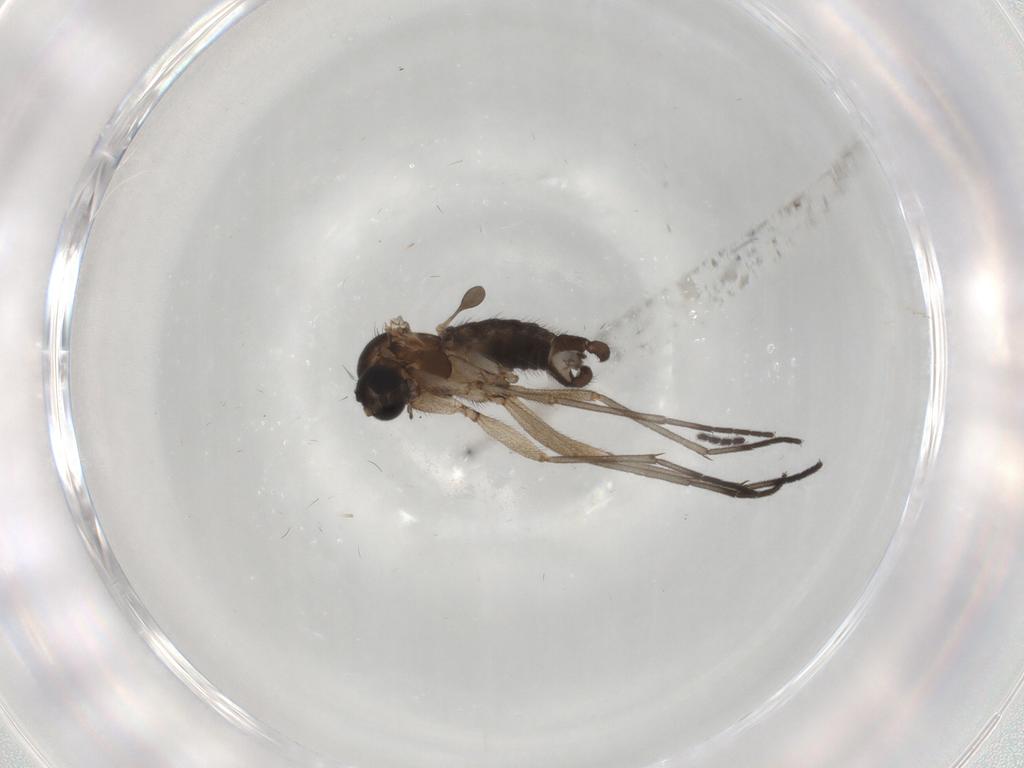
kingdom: Animalia
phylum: Arthropoda
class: Insecta
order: Diptera
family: Sciaridae
